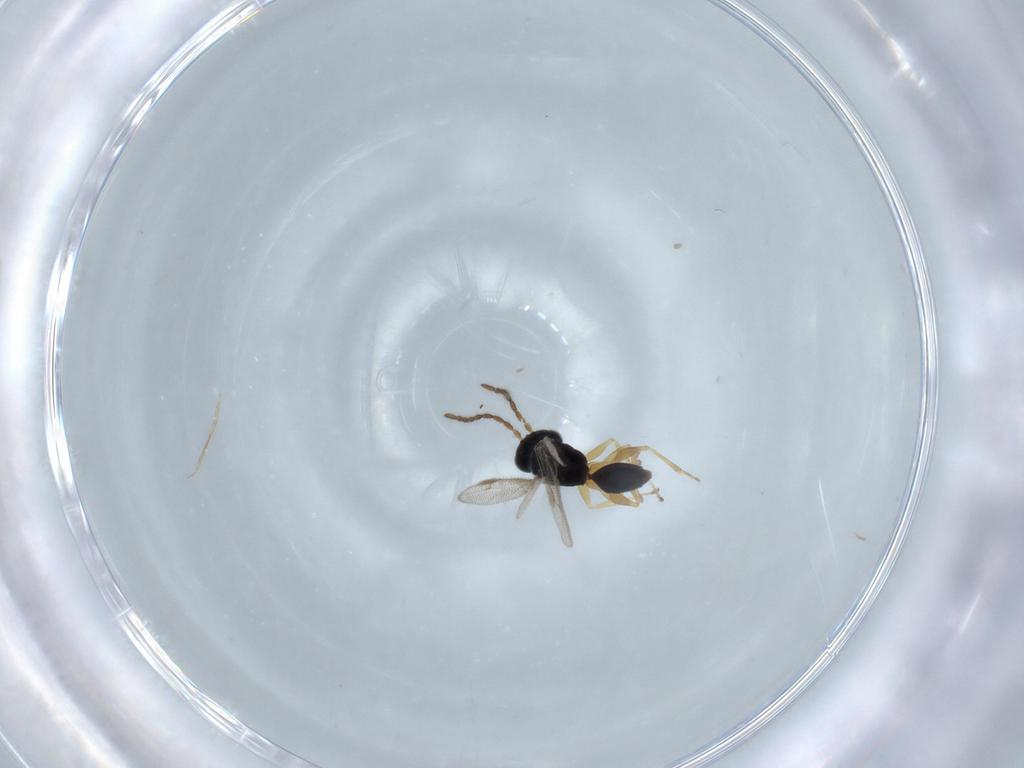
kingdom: Animalia
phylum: Arthropoda
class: Insecta
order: Hymenoptera
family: Dryinidae
